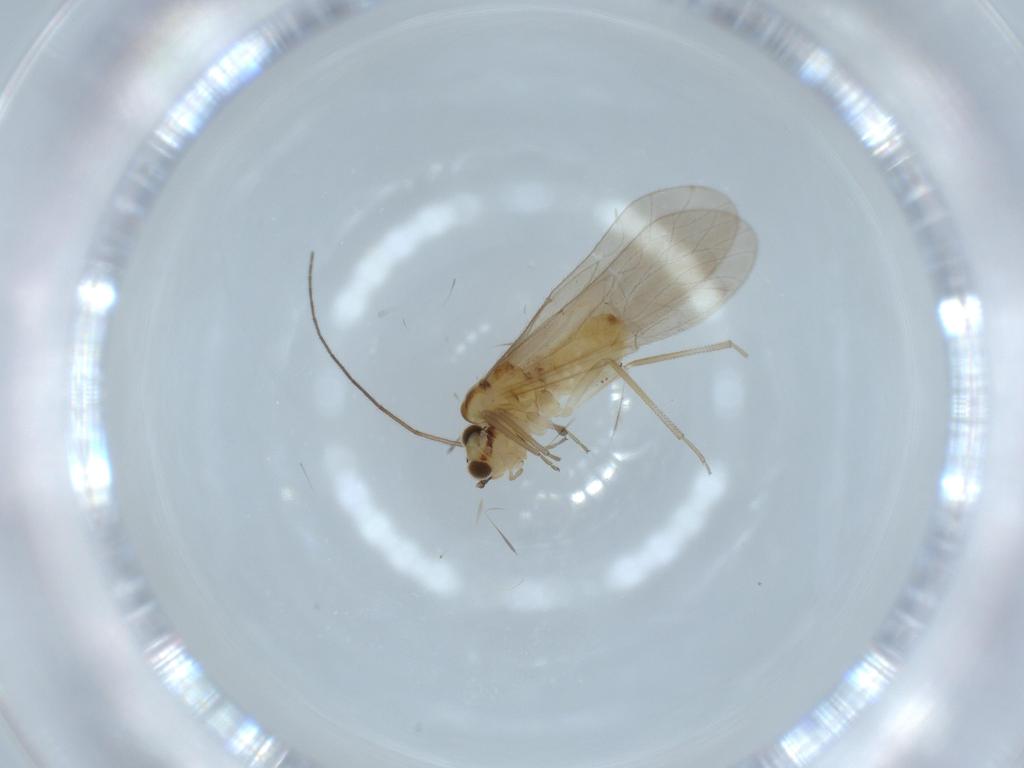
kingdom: Animalia
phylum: Arthropoda
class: Insecta
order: Psocodea
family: Caeciliusidae
